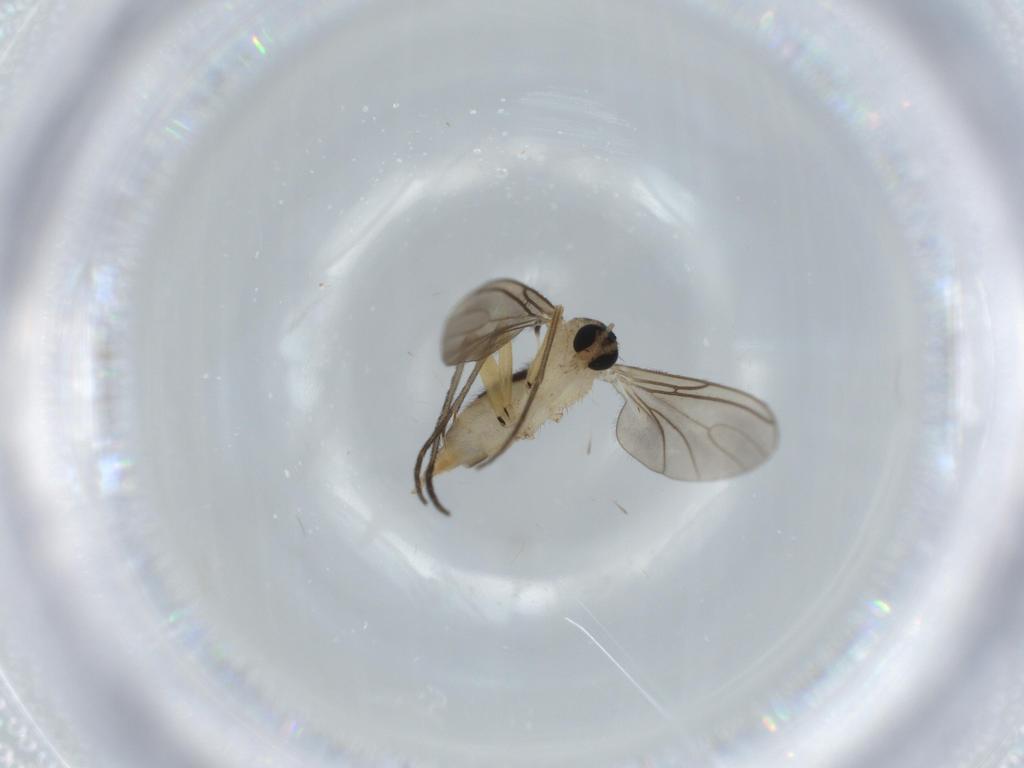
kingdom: Animalia
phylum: Arthropoda
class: Insecta
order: Diptera
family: Sciaridae
